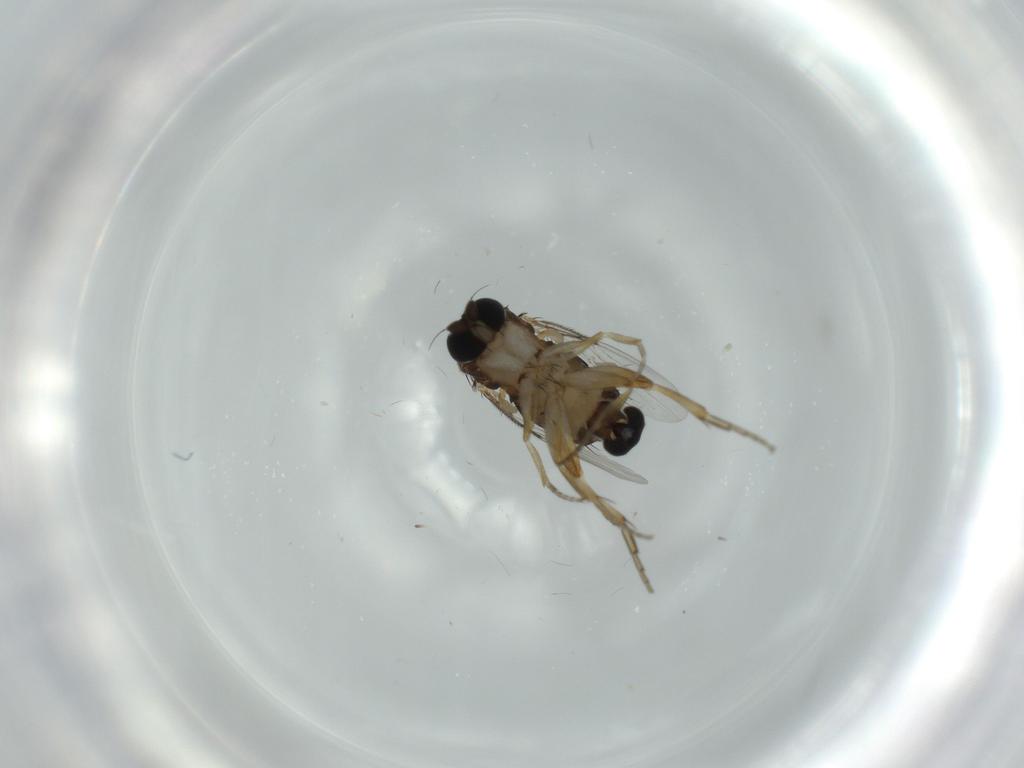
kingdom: Animalia
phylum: Arthropoda
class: Insecta
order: Diptera
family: Phoridae
